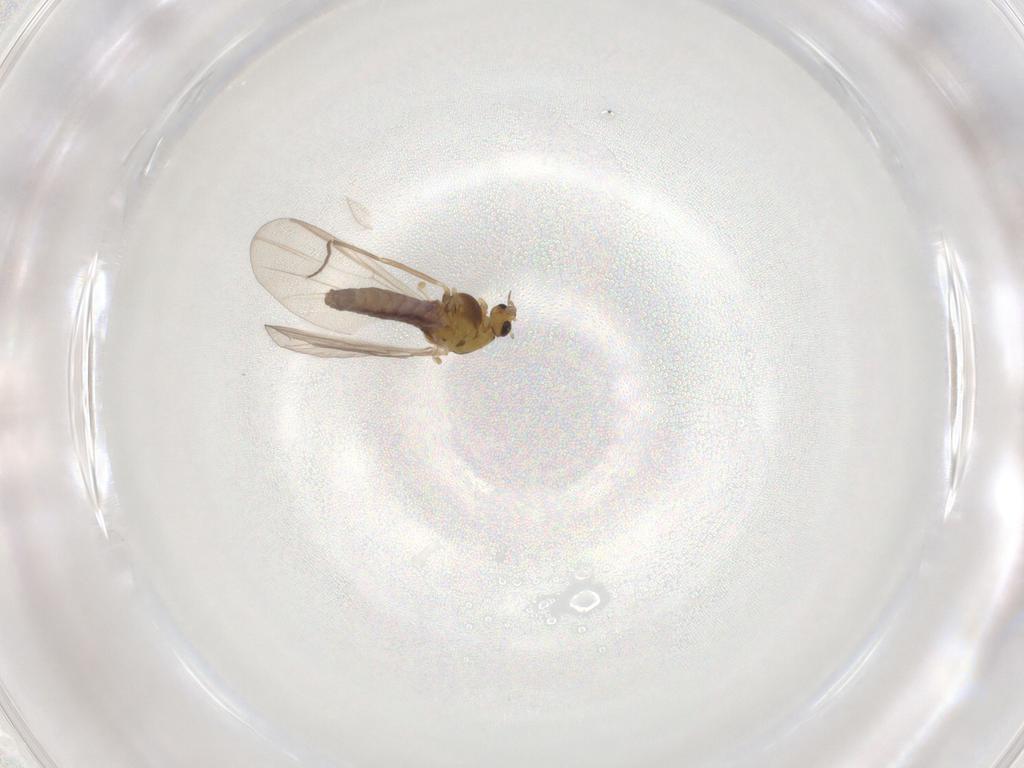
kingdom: Animalia
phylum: Arthropoda
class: Insecta
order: Diptera
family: Chironomidae
